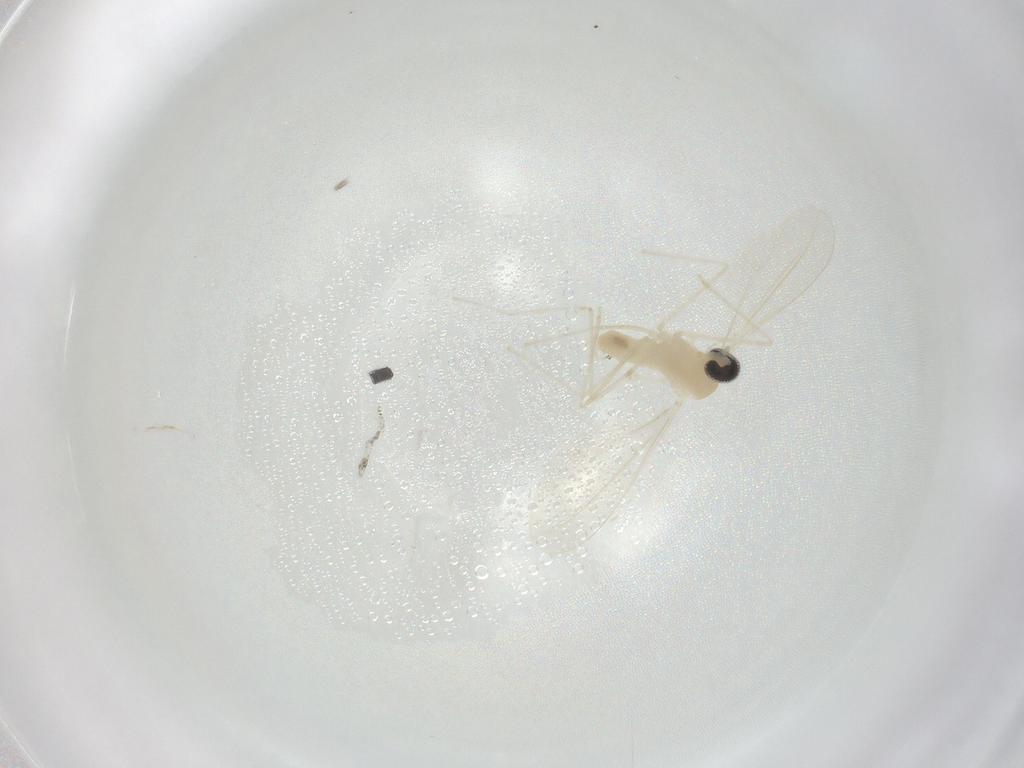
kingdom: Animalia
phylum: Arthropoda
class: Insecta
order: Diptera
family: Cecidomyiidae
